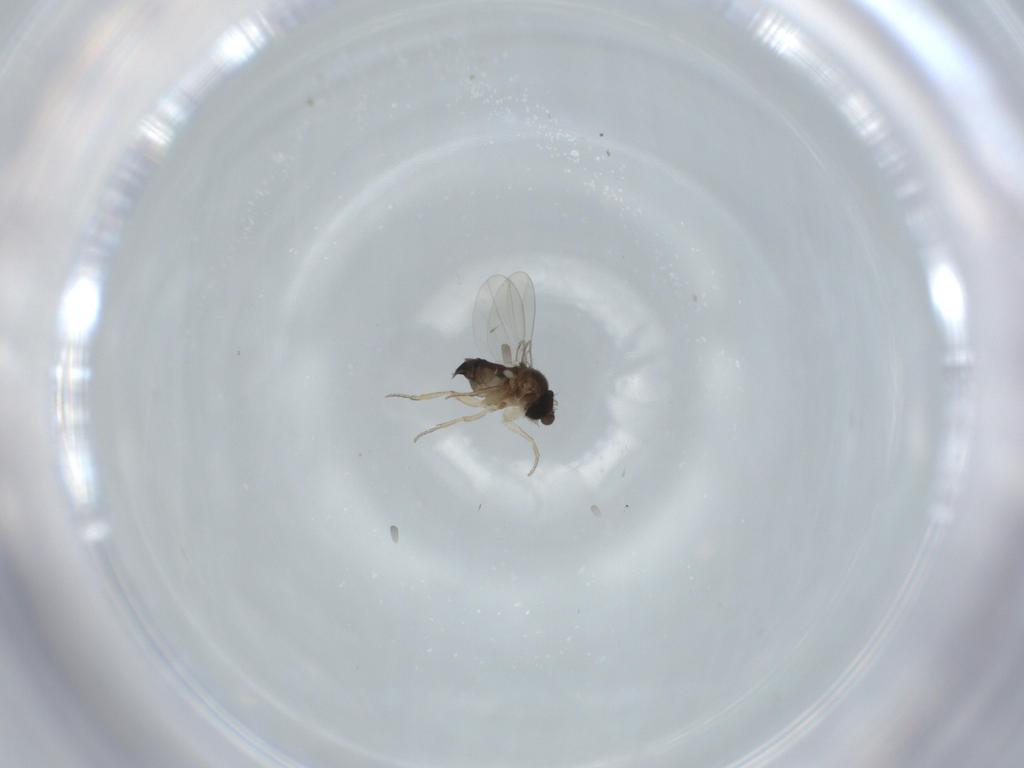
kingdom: Animalia
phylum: Arthropoda
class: Insecta
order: Diptera
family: Phoridae
